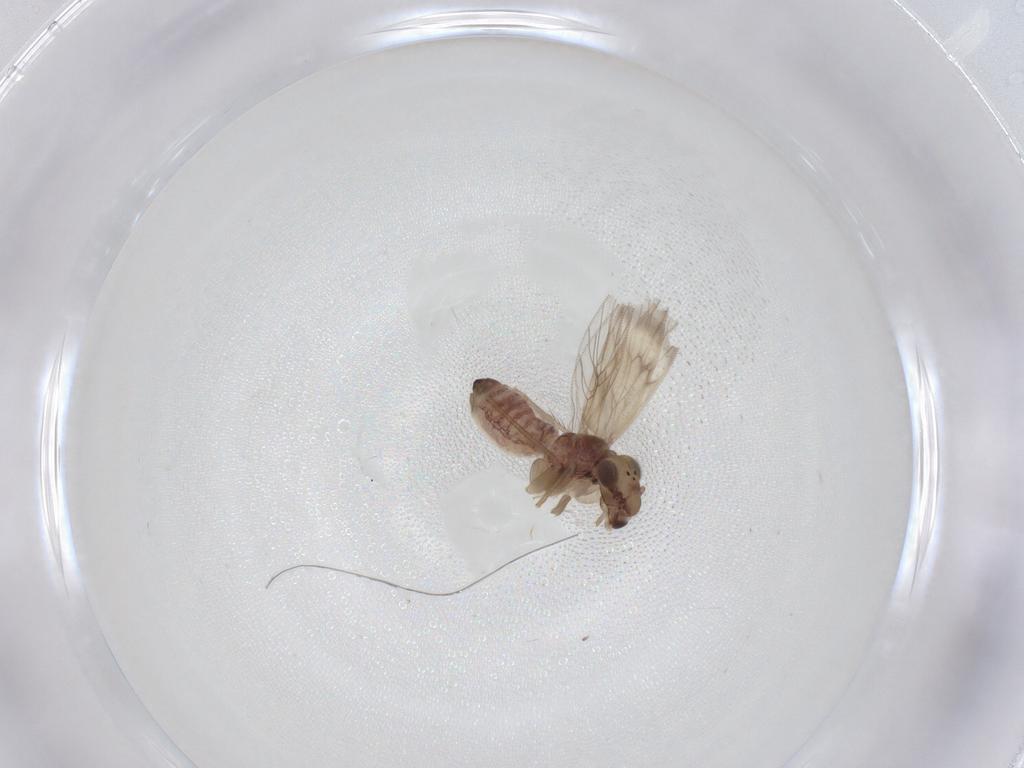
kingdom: Animalia
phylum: Arthropoda
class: Insecta
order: Psocodea
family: Lepidopsocidae
